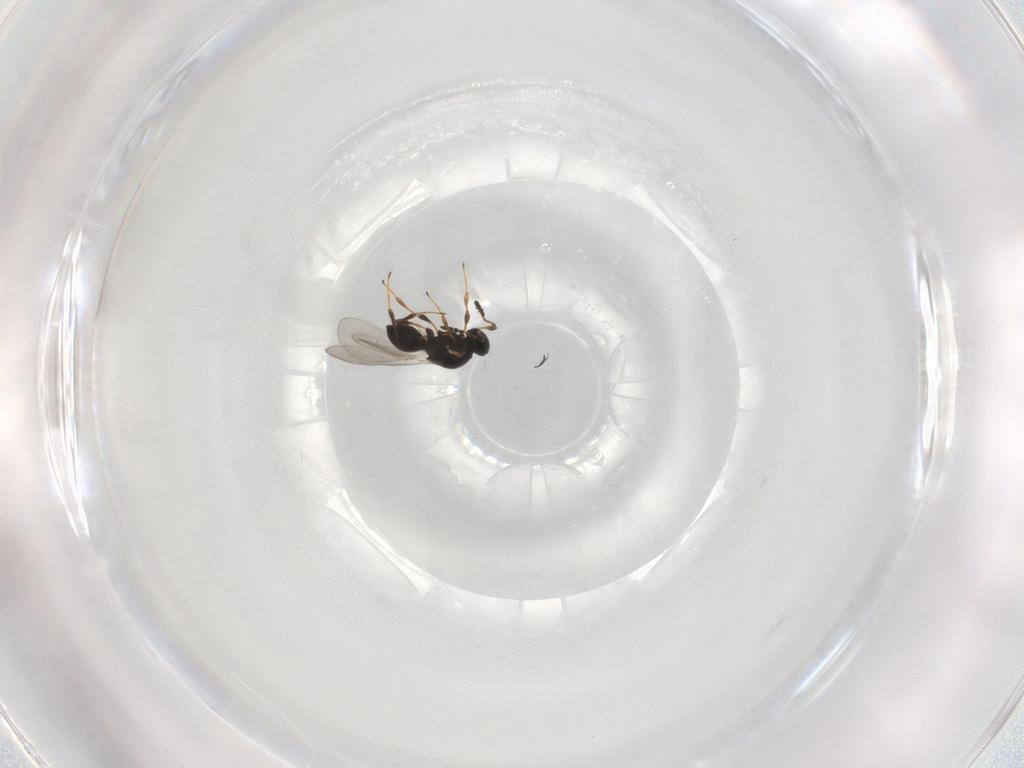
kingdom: Animalia
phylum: Arthropoda
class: Insecta
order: Hymenoptera
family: Platygastridae
